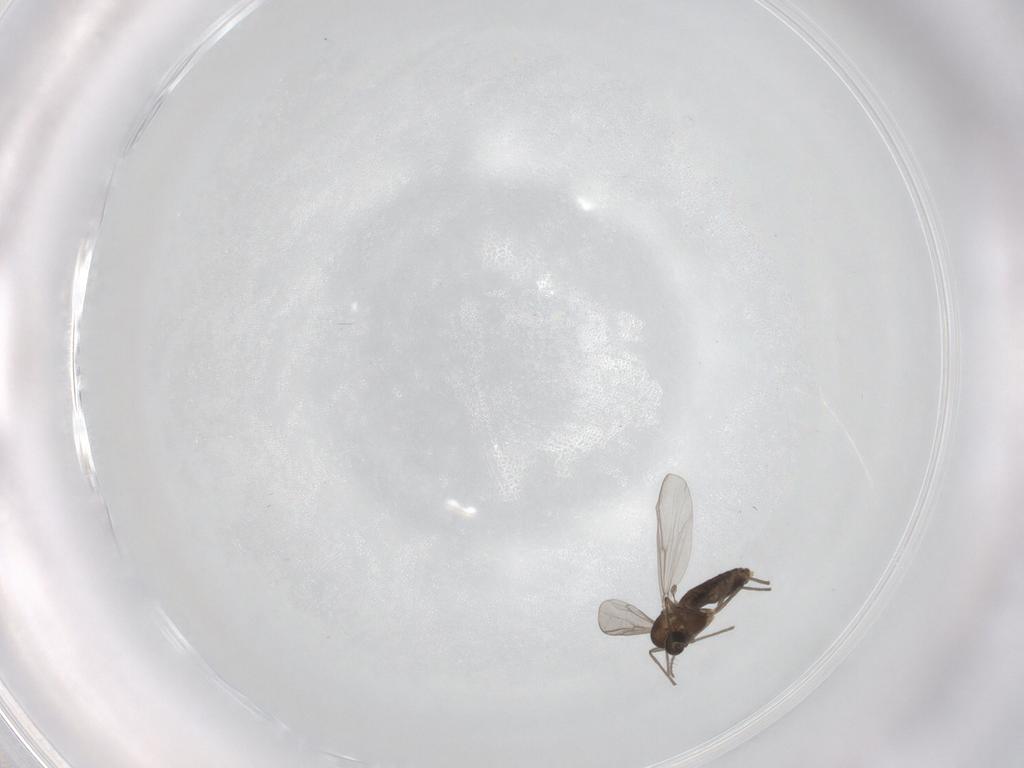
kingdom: Animalia
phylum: Arthropoda
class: Insecta
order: Diptera
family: Chironomidae
